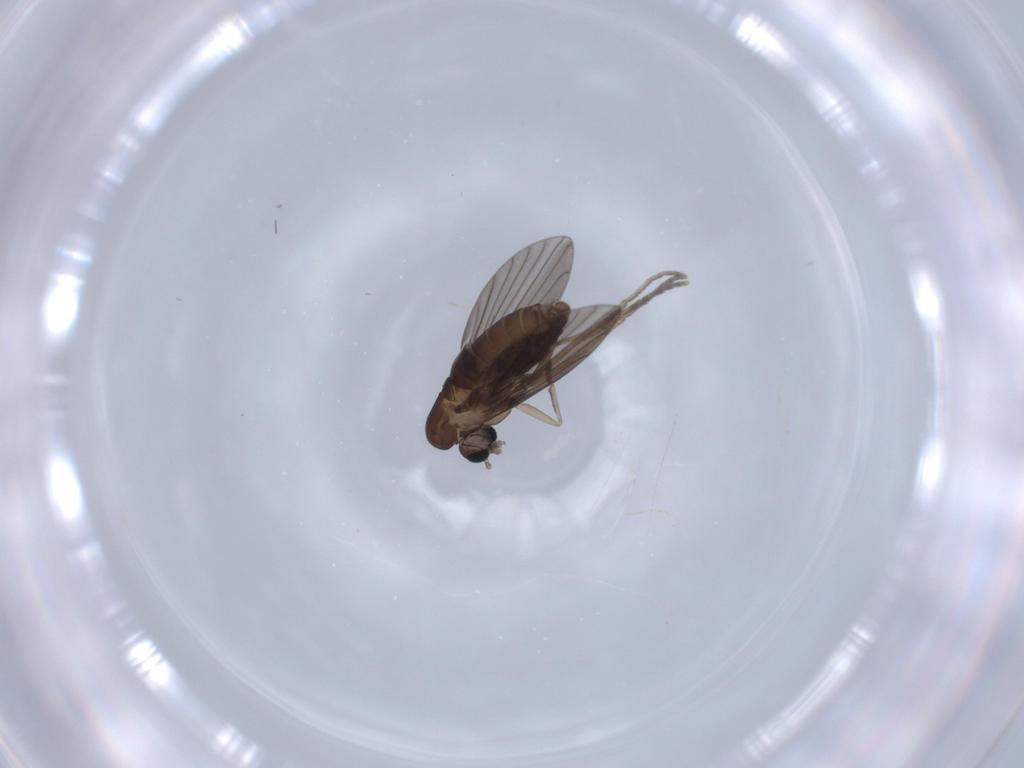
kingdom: Animalia
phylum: Arthropoda
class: Insecta
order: Diptera
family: Psychodidae
